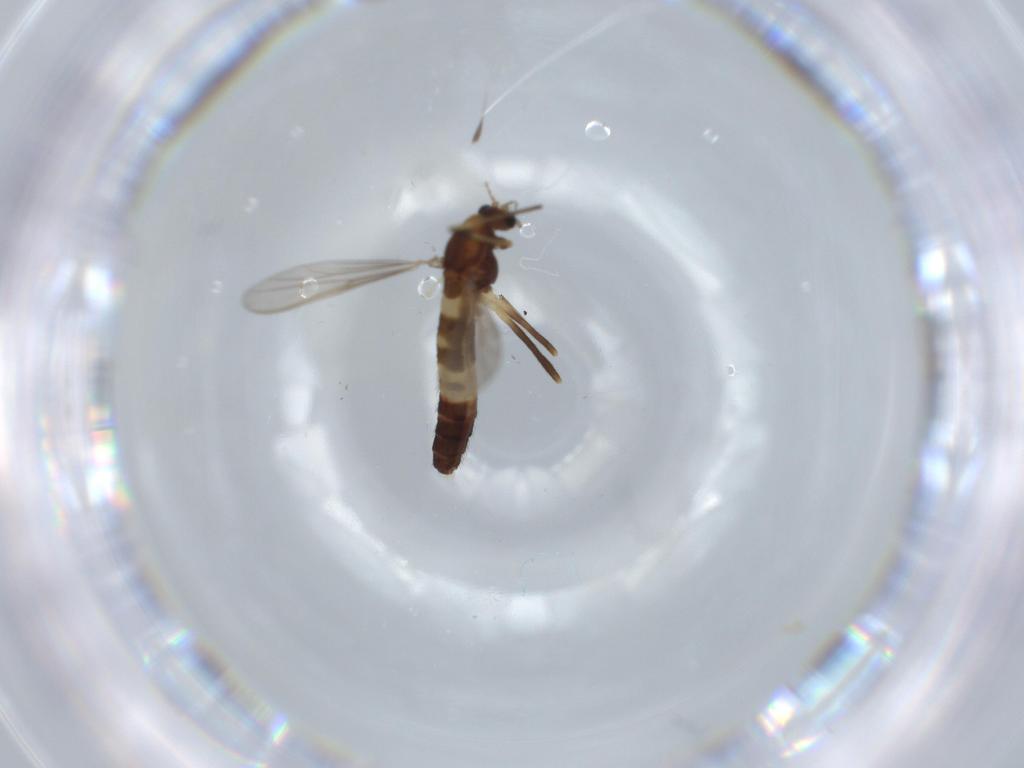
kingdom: Animalia
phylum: Arthropoda
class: Insecta
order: Diptera
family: Chironomidae
